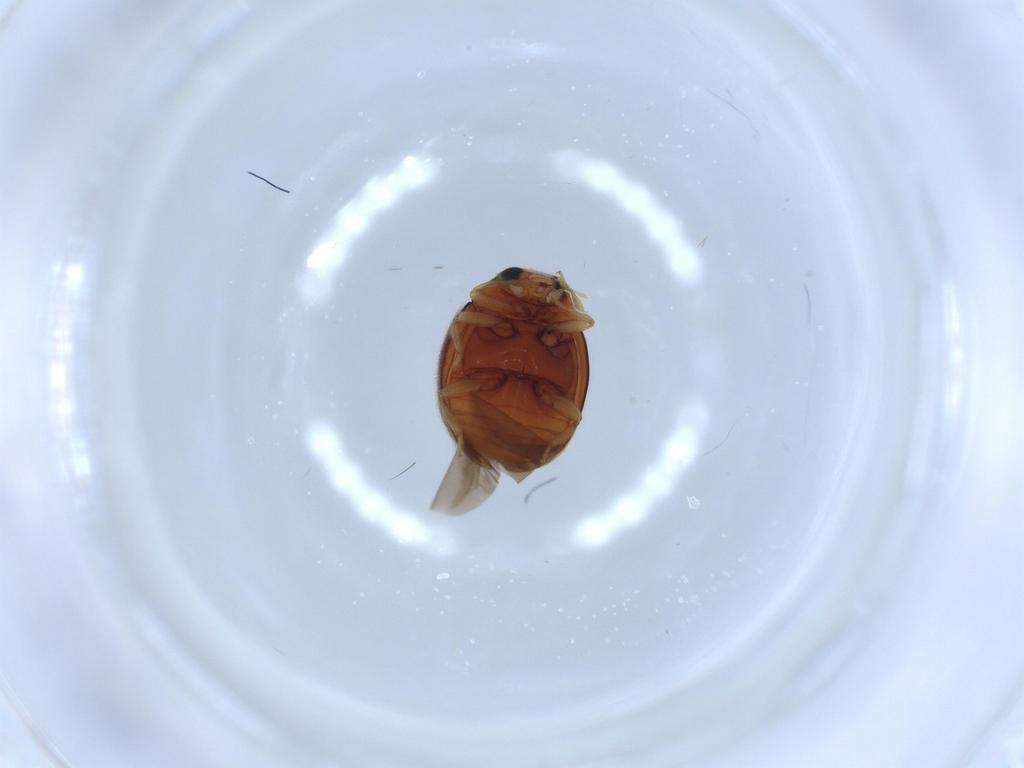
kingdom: Animalia
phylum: Arthropoda
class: Insecta
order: Coleoptera
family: Coccinellidae
